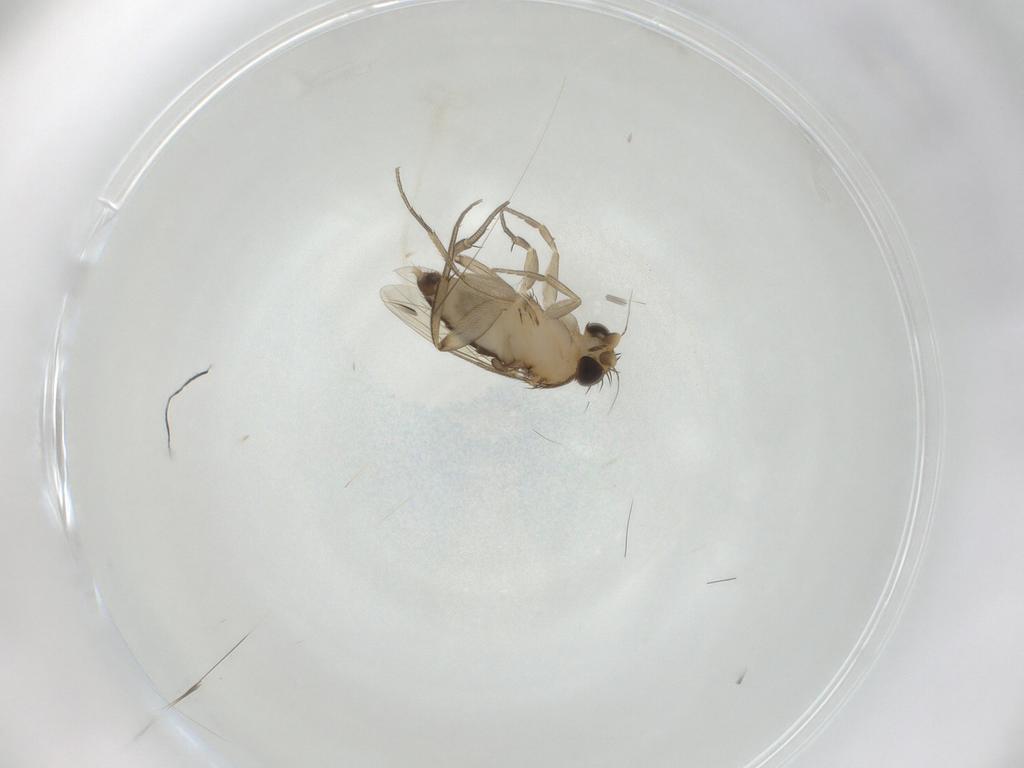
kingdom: Animalia
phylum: Arthropoda
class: Insecta
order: Diptera
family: Phoridae
